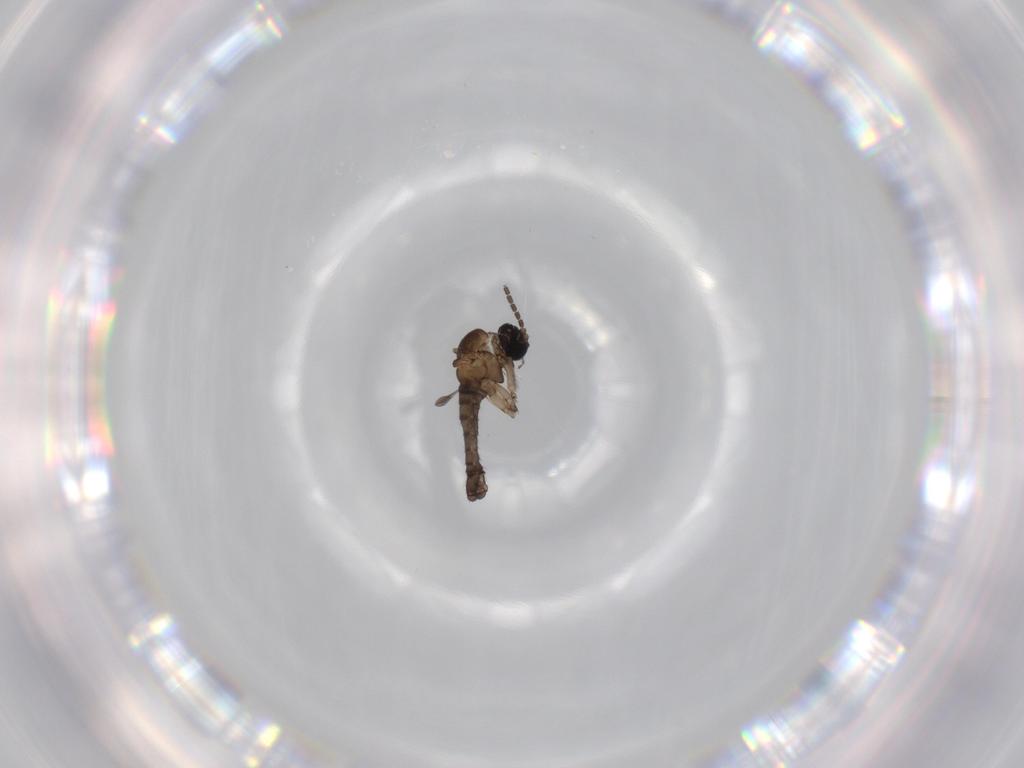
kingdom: Animalia
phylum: Arthropoda
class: Insecta
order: Diptera
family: Sciaridae
